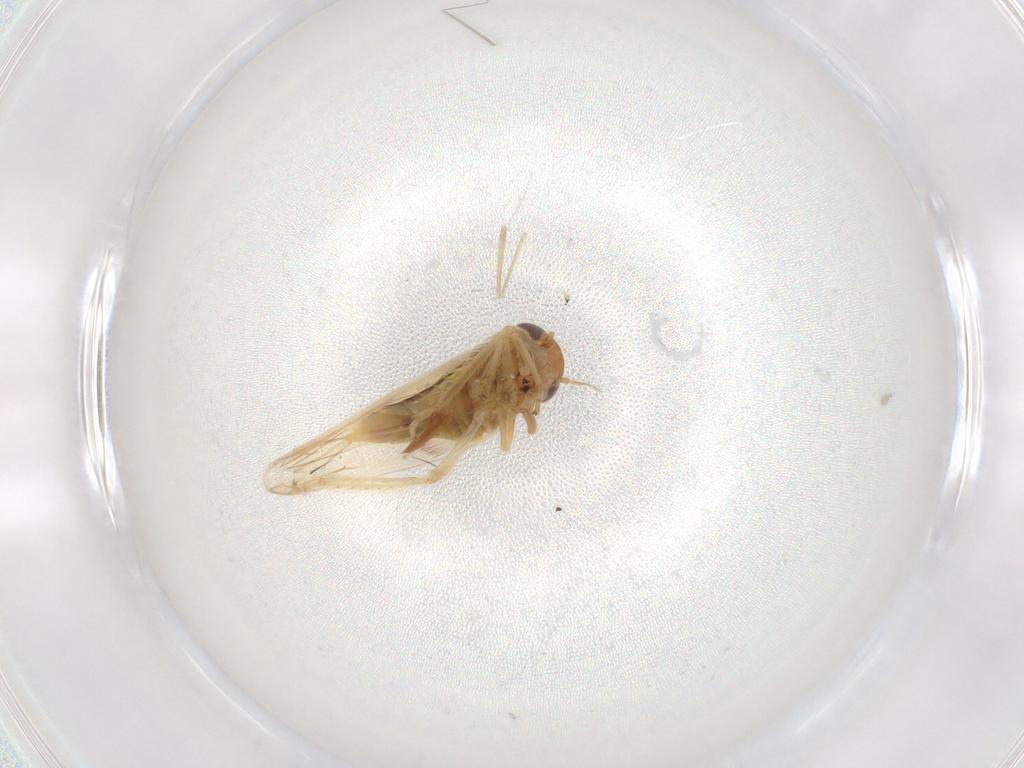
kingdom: Animalia
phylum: Arthropoda
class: Insecta
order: Hemiptera
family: Cicadellidae
